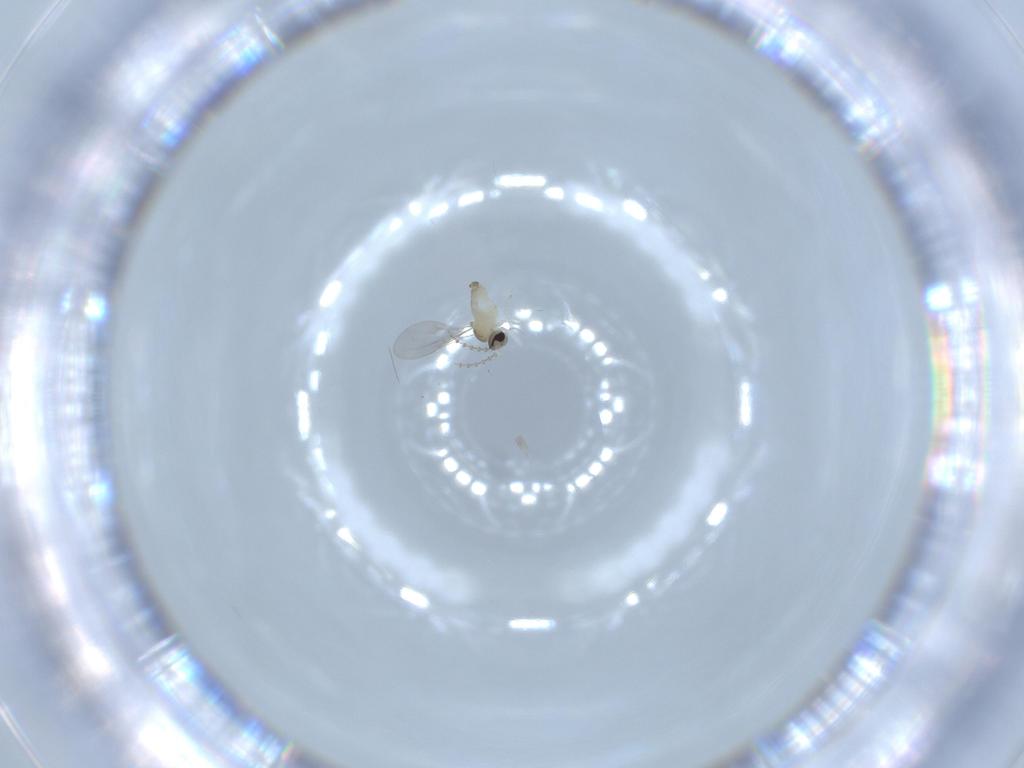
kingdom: Animalia
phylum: Arthropoda
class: Insecta
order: Diptera
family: Cecidomyiidae
